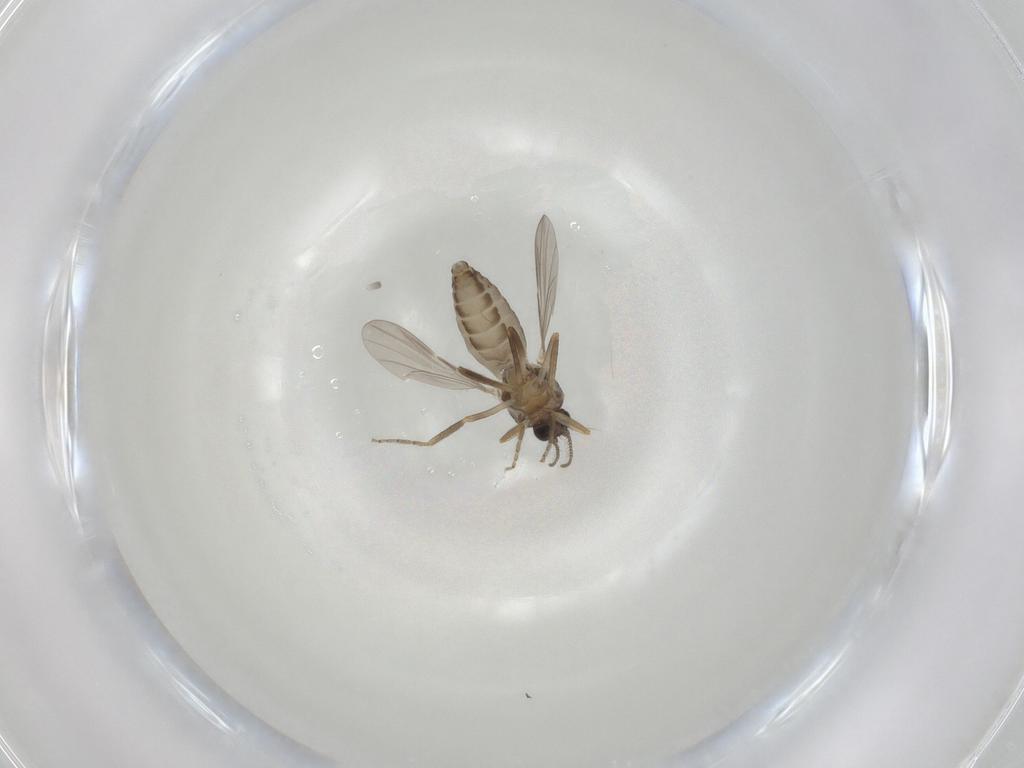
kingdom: Animalia
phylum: Arthropoda
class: Insecta
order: Diptera
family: Ceratopogonidae
